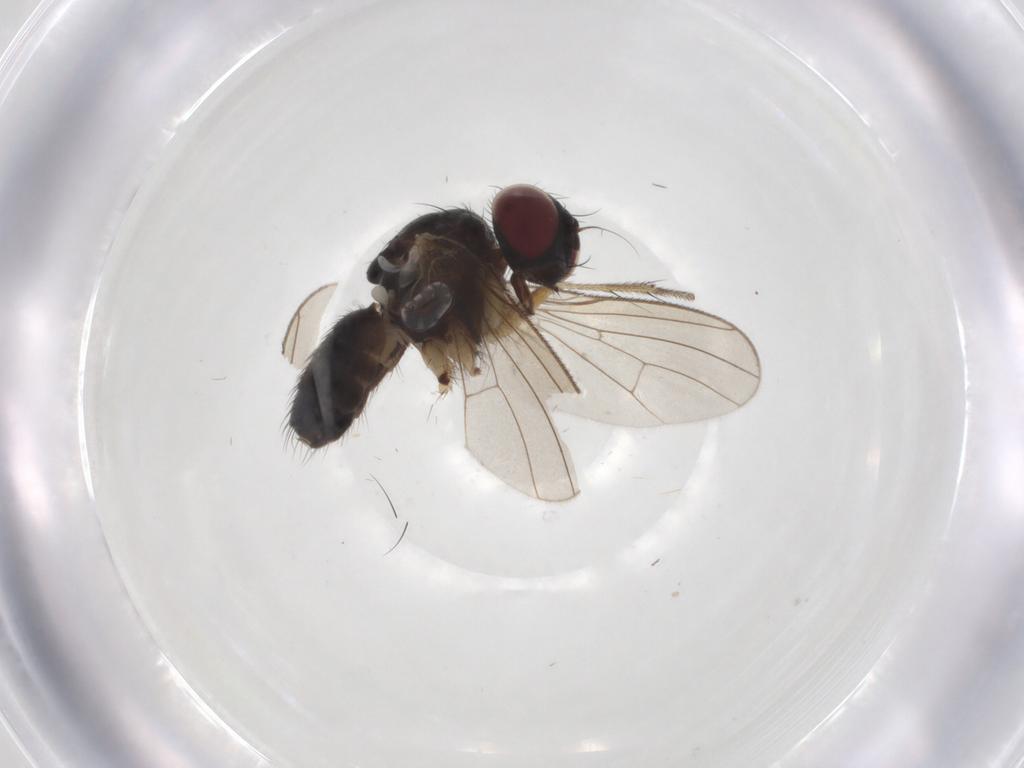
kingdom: Animalia
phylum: Arthropoda
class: Insecta
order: Diptera
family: Muscidae
